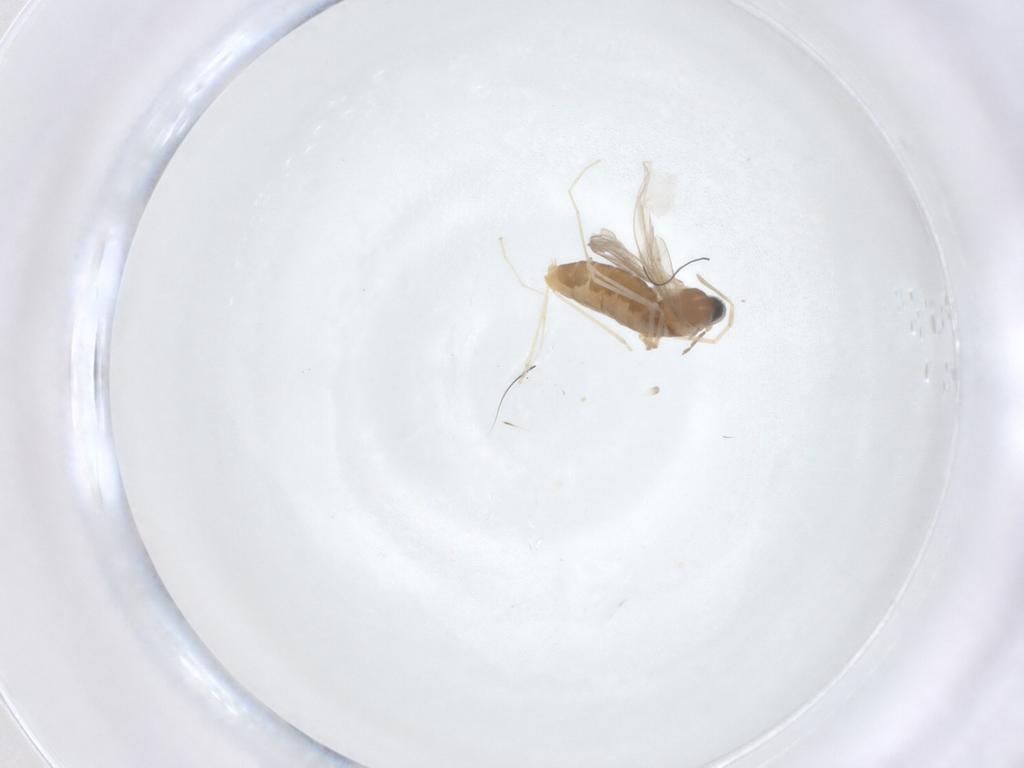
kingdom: Animalia
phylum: Arthropoda
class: Insecta
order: Diptera
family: Cecidomyiidae
